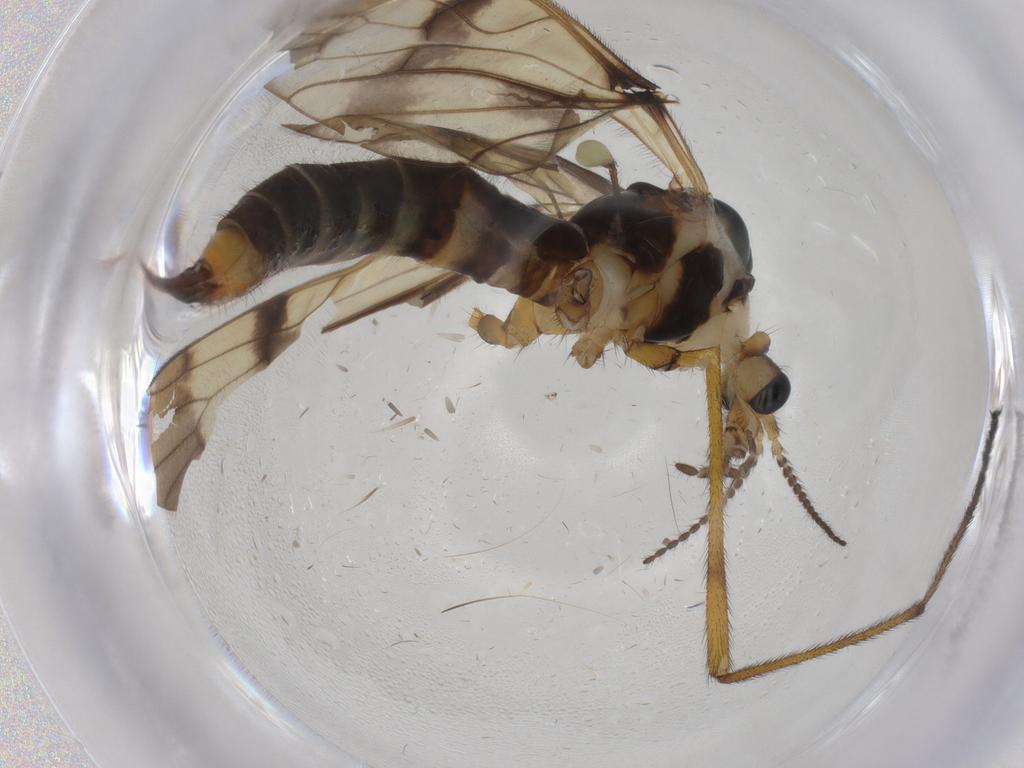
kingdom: Animalia
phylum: Arthropoda
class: Insecta
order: Diptera
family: Limoniidae
